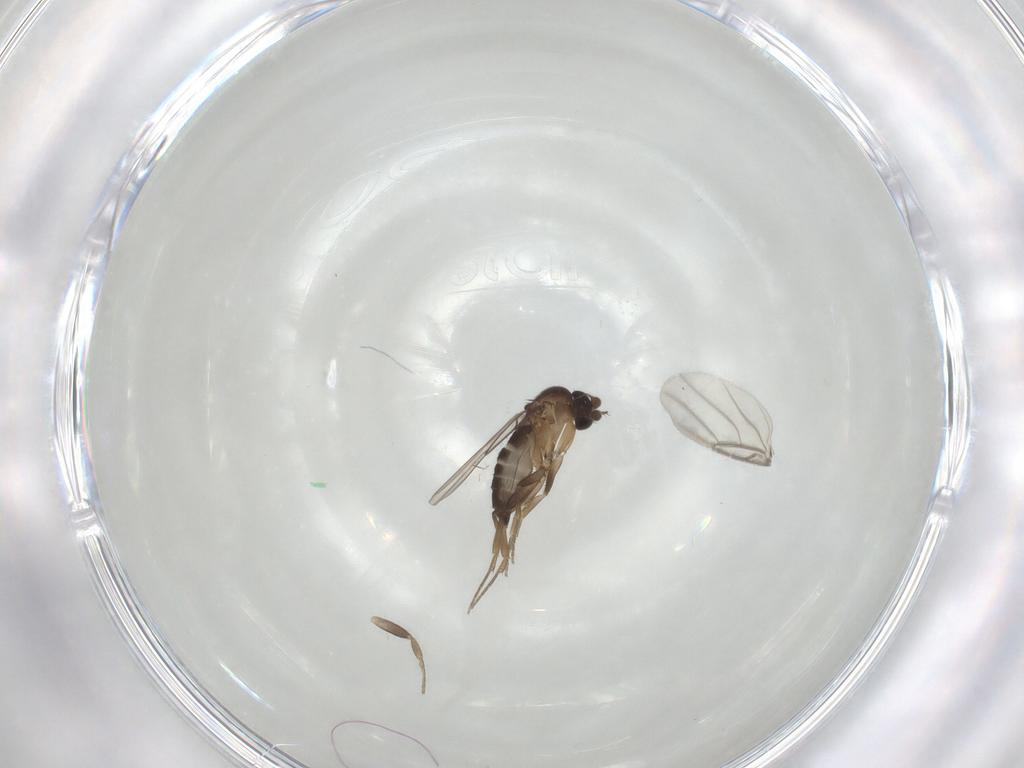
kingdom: Animalia
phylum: Arthropoda
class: Insecta
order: Diptera
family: Phoridae
